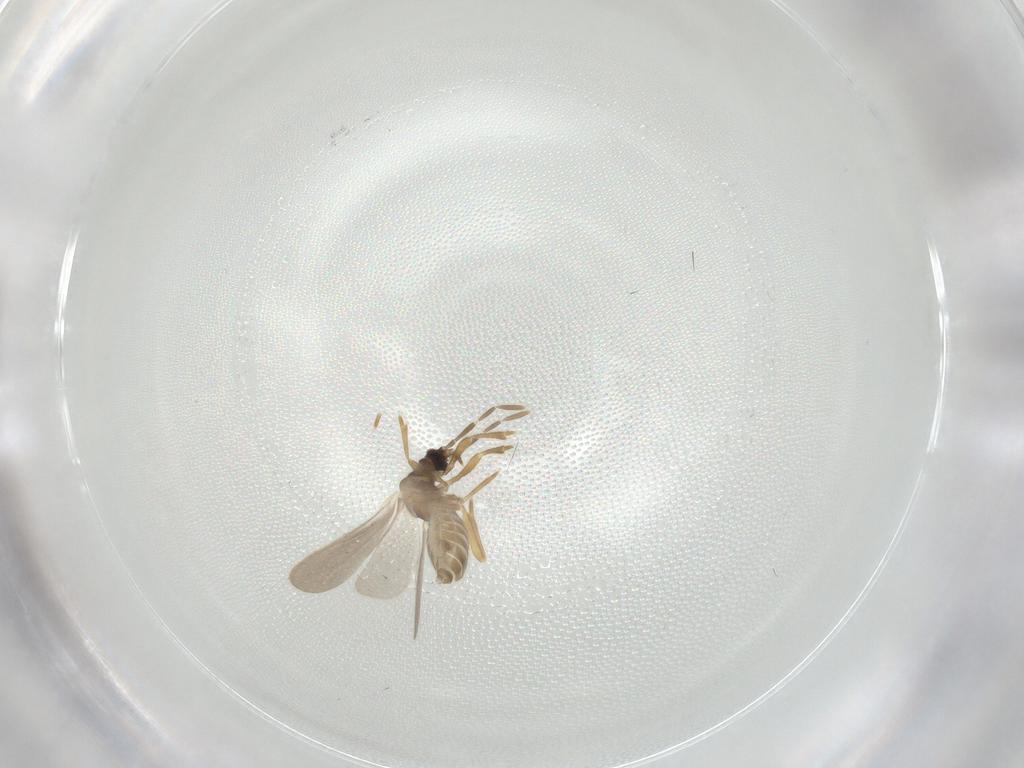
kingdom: Animalia
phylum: Arthropoda
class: Insecta
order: Hemiptera
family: Enicocephalidae
